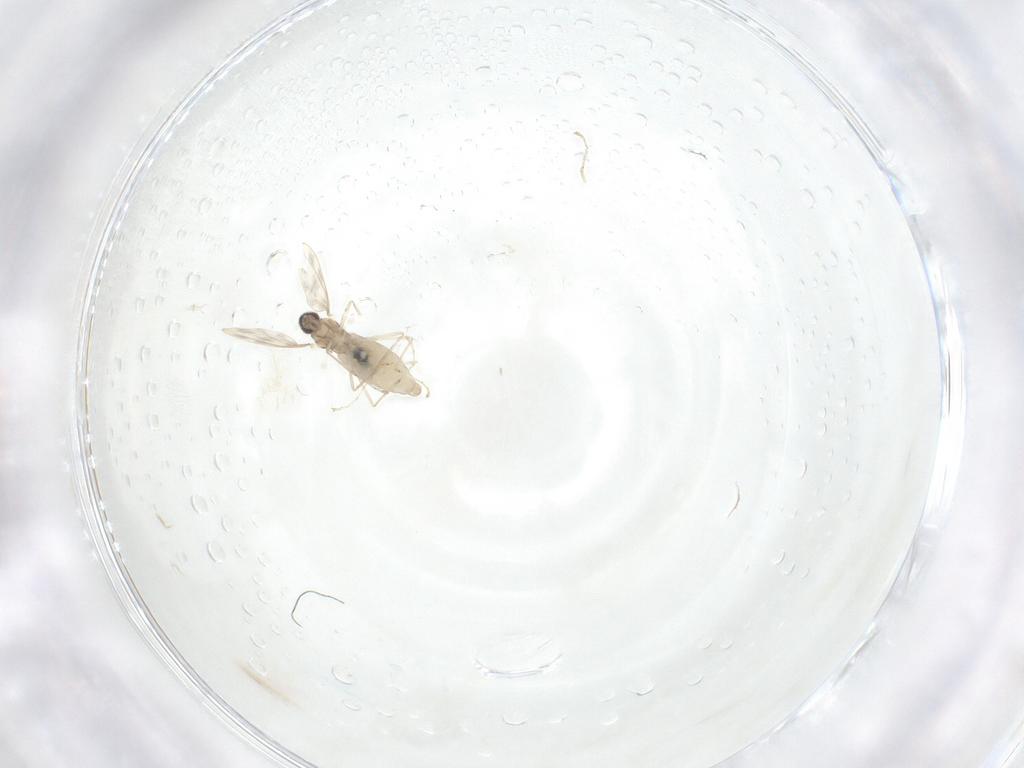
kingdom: Animalia
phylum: Arthropoda
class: Insecta
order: Diptera
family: Cecidomyiidae
